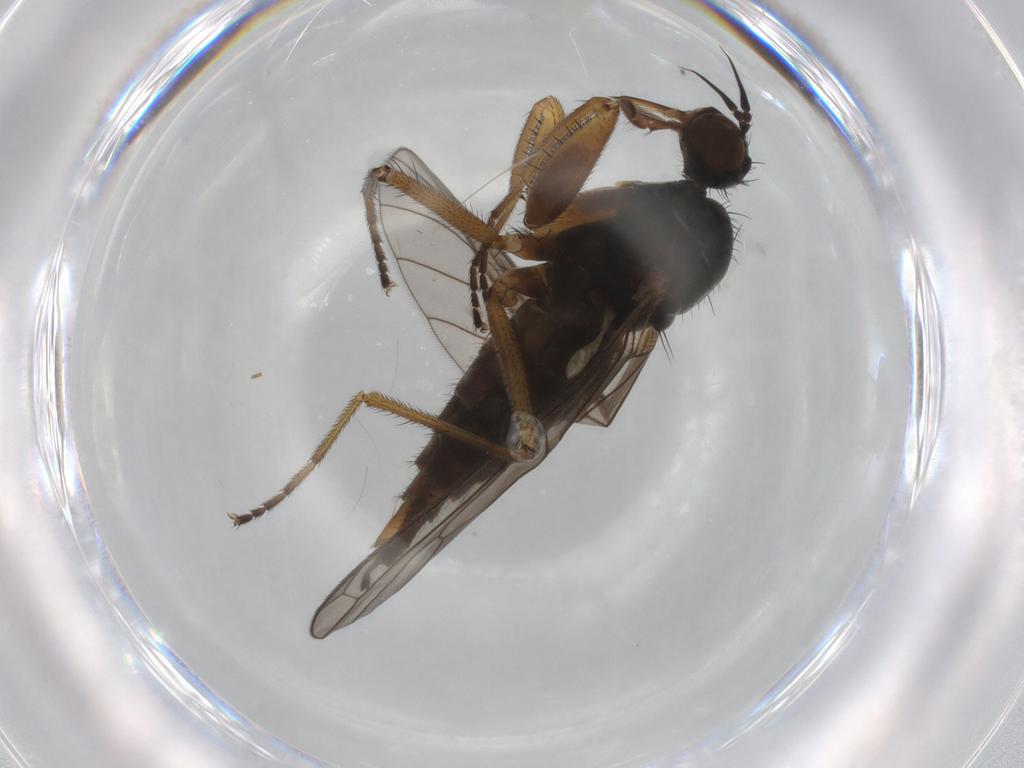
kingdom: Animalia
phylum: Arthropoda
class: Insecta
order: Diptera
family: Empididae
